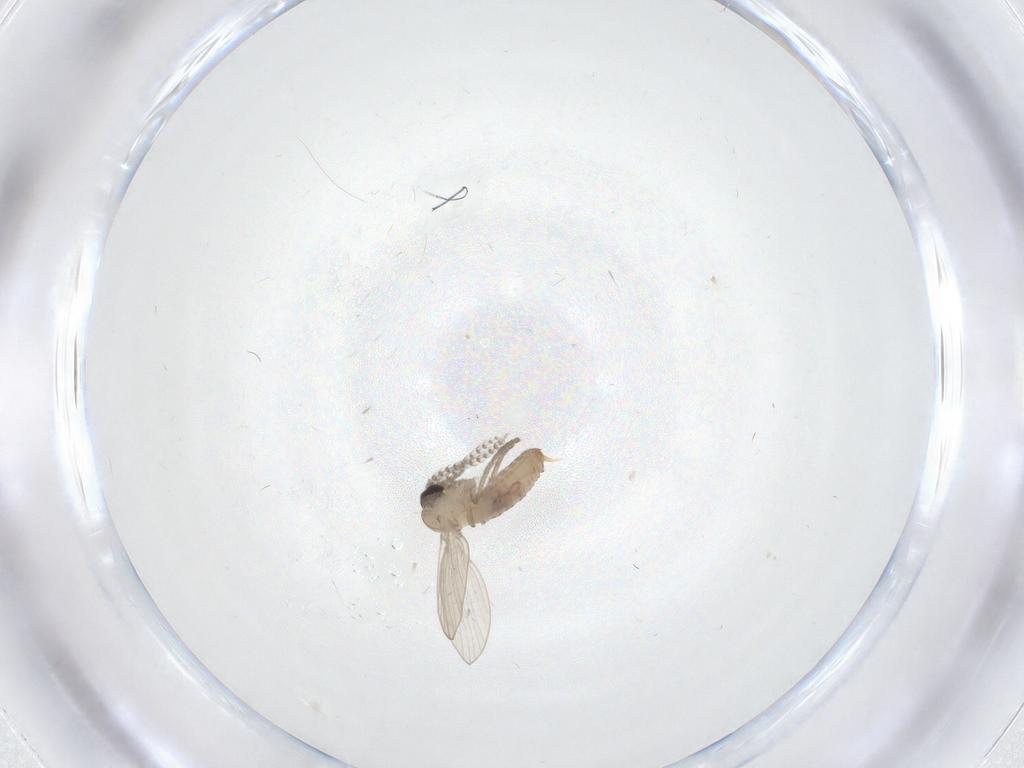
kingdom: Animalia
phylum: Arthropoda
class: Insecta
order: Diptera
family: Psychodidae
